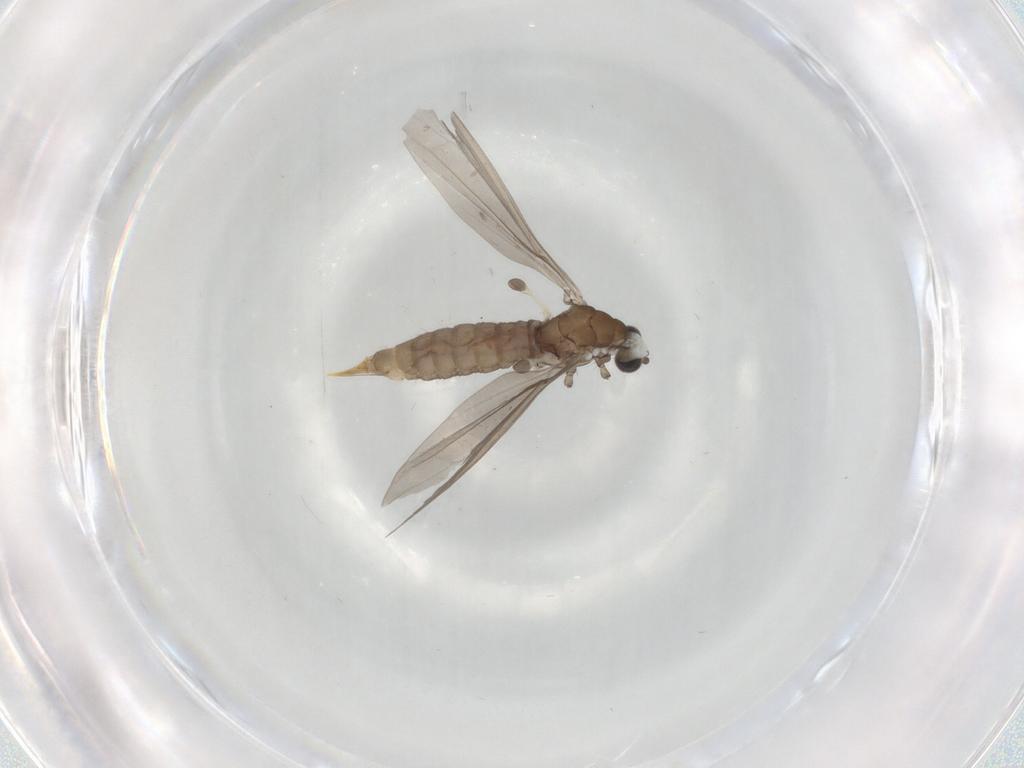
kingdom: Animalia
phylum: Arthropoda
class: Insecta
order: Diptera
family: Limoniidae
